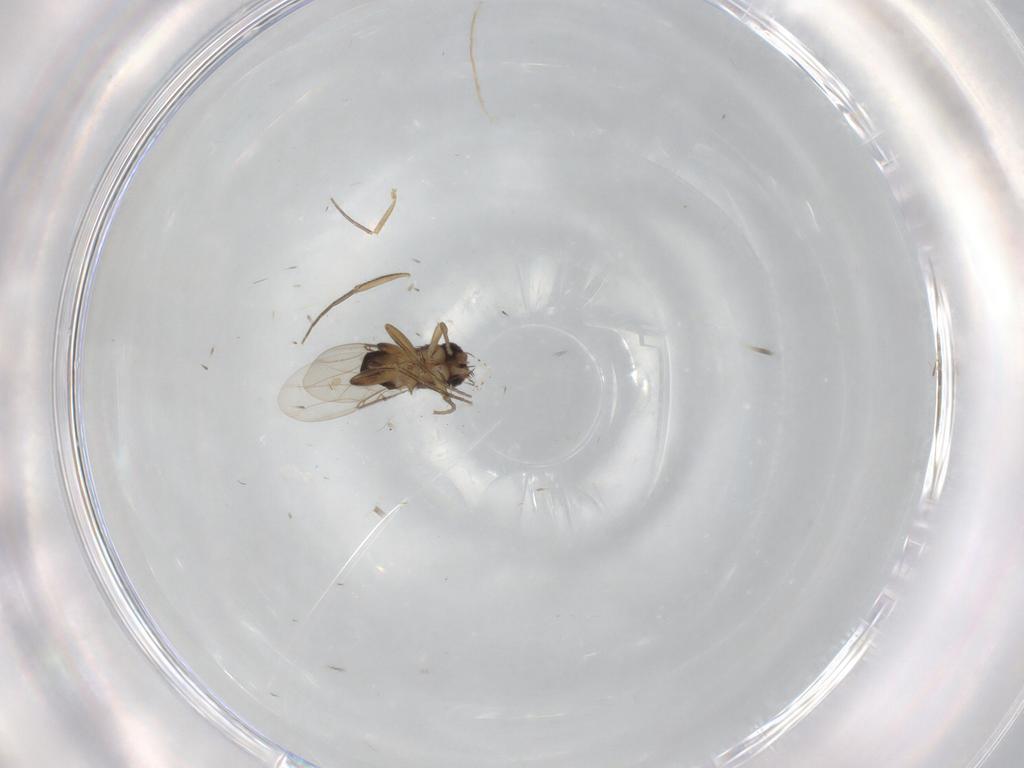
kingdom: Animalia
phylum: Arthropoda
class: Insecta
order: Diptera
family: Phoridae
